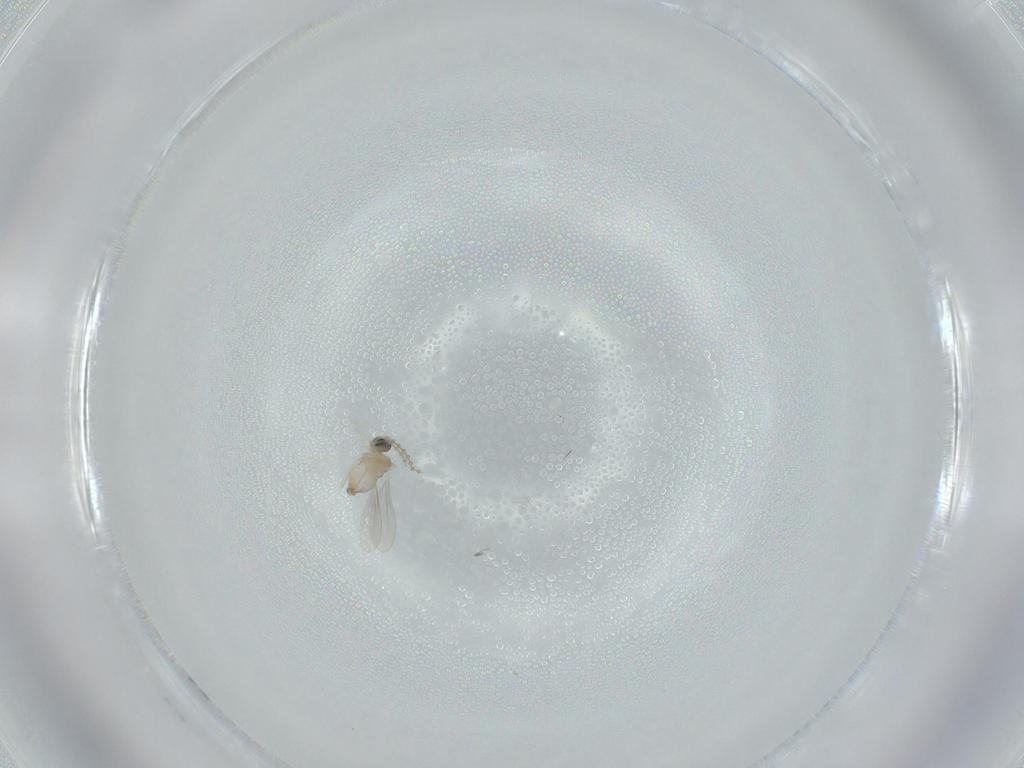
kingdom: Animalia
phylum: Arthropoda
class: Insecta
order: Diptera
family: Cecidomyiidae
